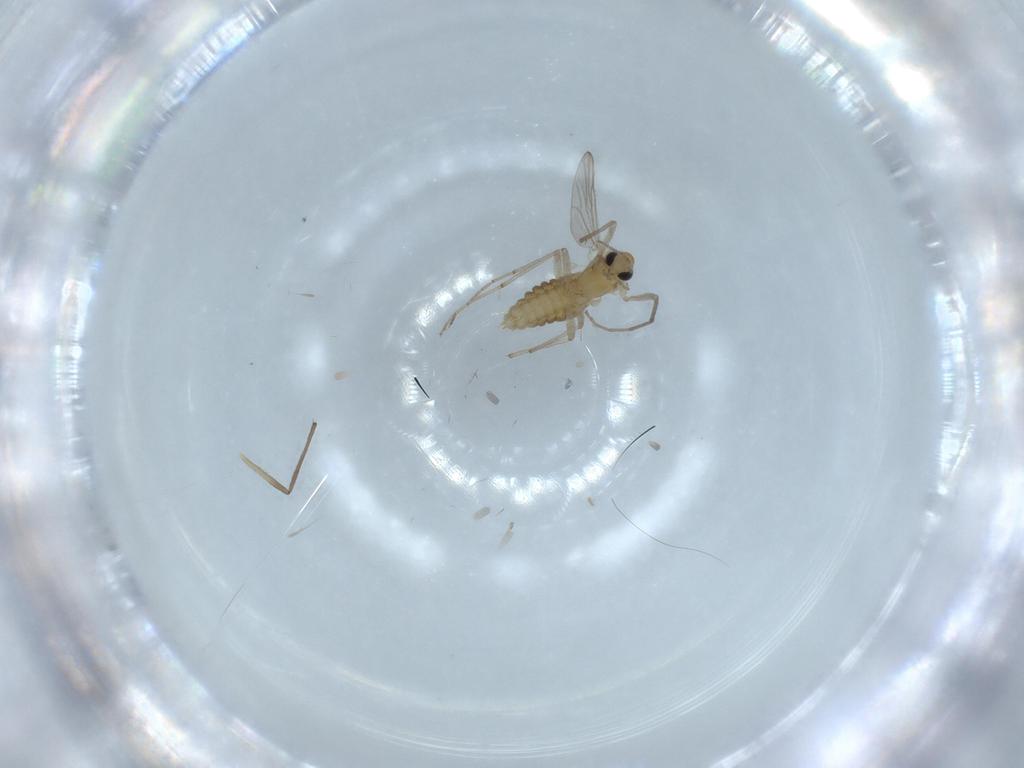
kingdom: Animalia
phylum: Arthropoda
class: Insecta
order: Diptera
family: Chironomidae
